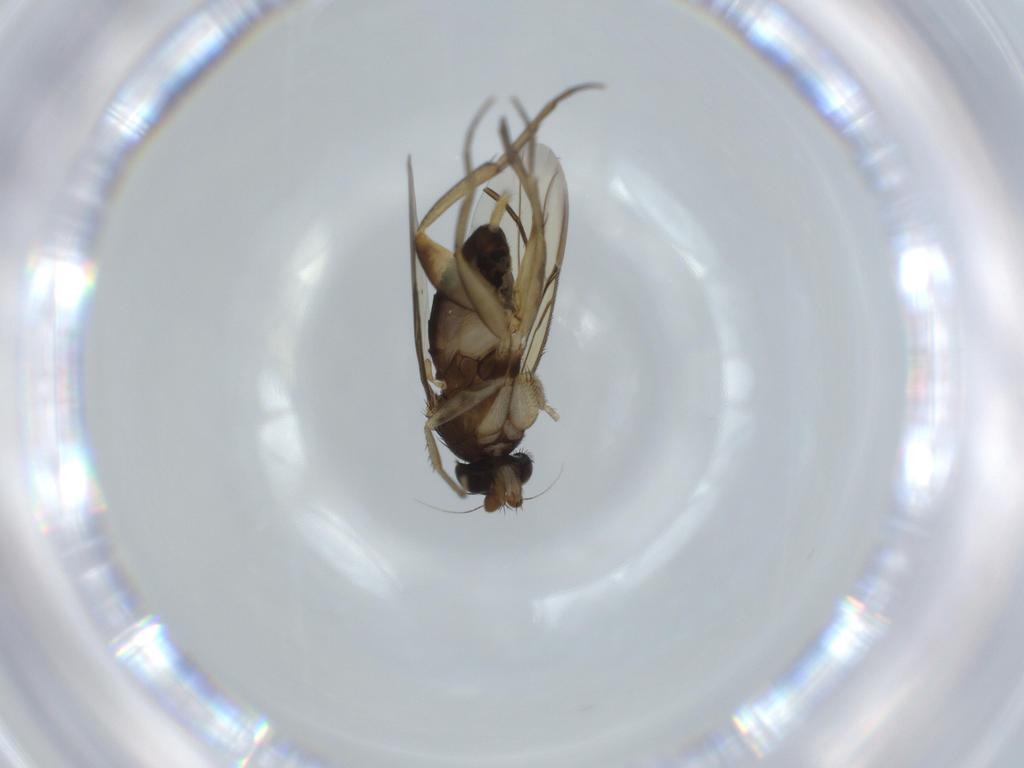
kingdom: Animalia
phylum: Arthropoda
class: Insecta
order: Diptera
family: Phoridae
